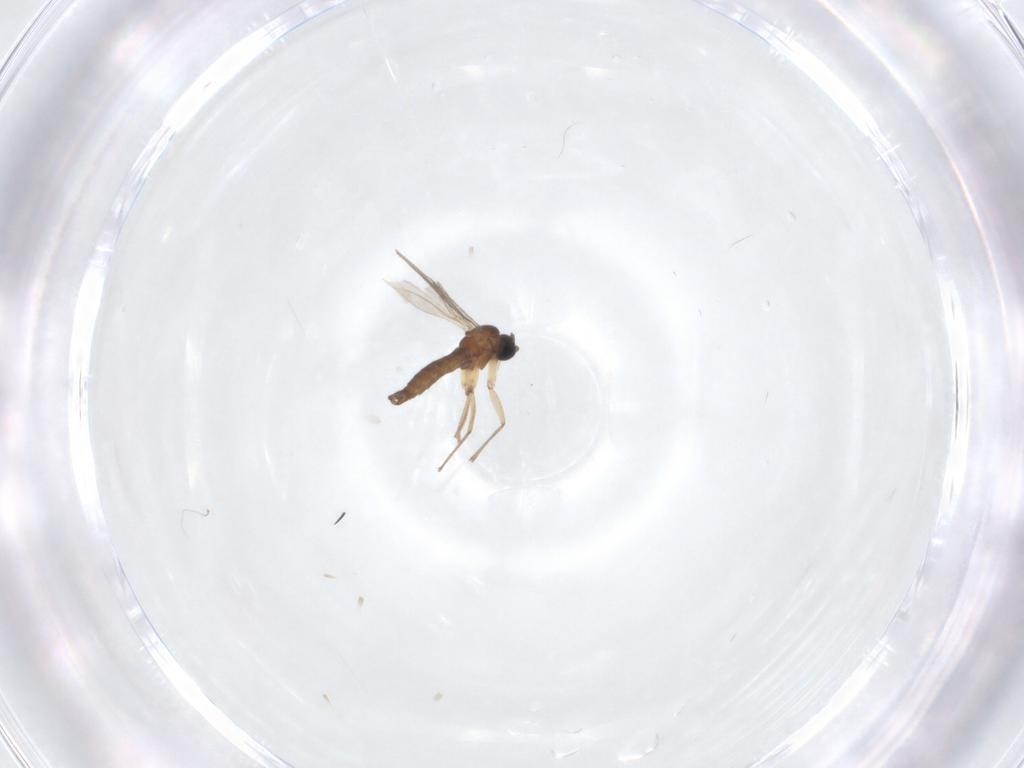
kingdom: Animalia
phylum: Arthropoda
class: Insecta
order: Diptera
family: Sciaridae
